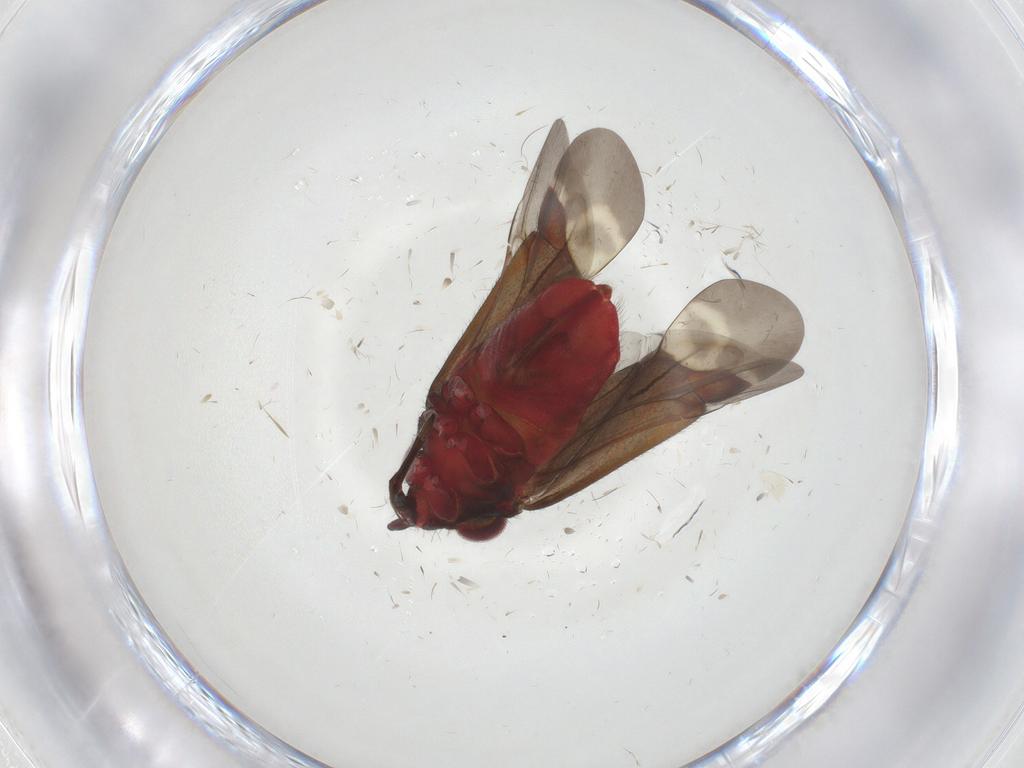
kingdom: Animalia
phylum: Arthropoda
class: Insecta
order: Hemiptera
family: Miridae
